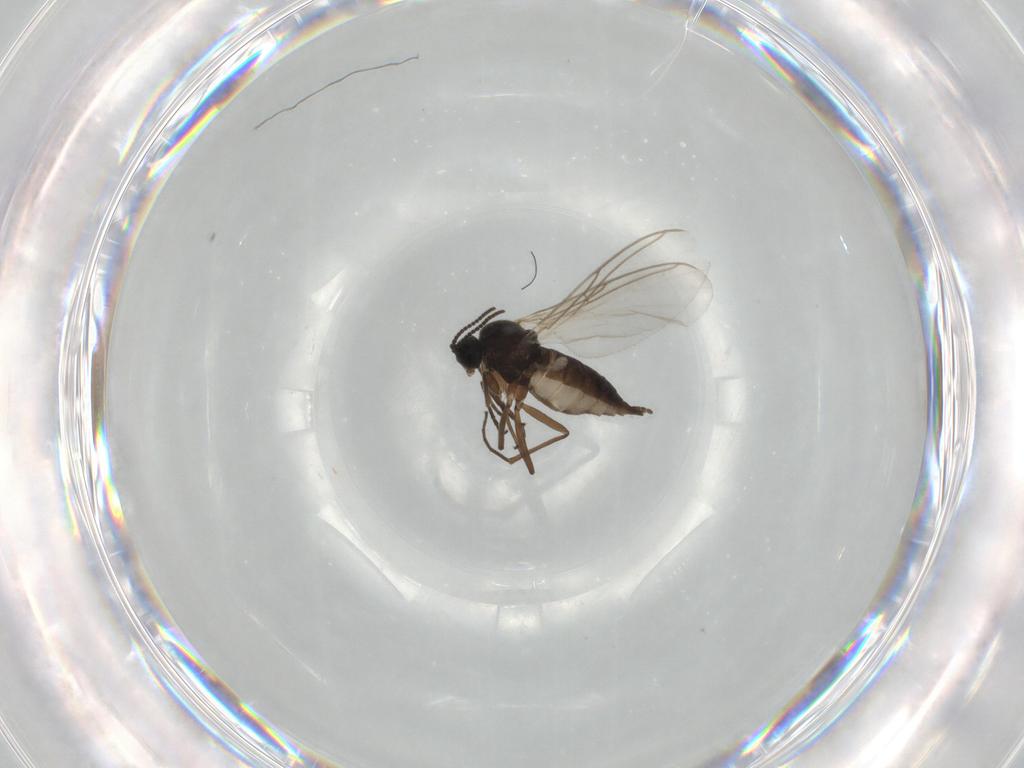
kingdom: Animalia
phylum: Arthropoda
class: Insecta
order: Diptera
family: Sciaridae
